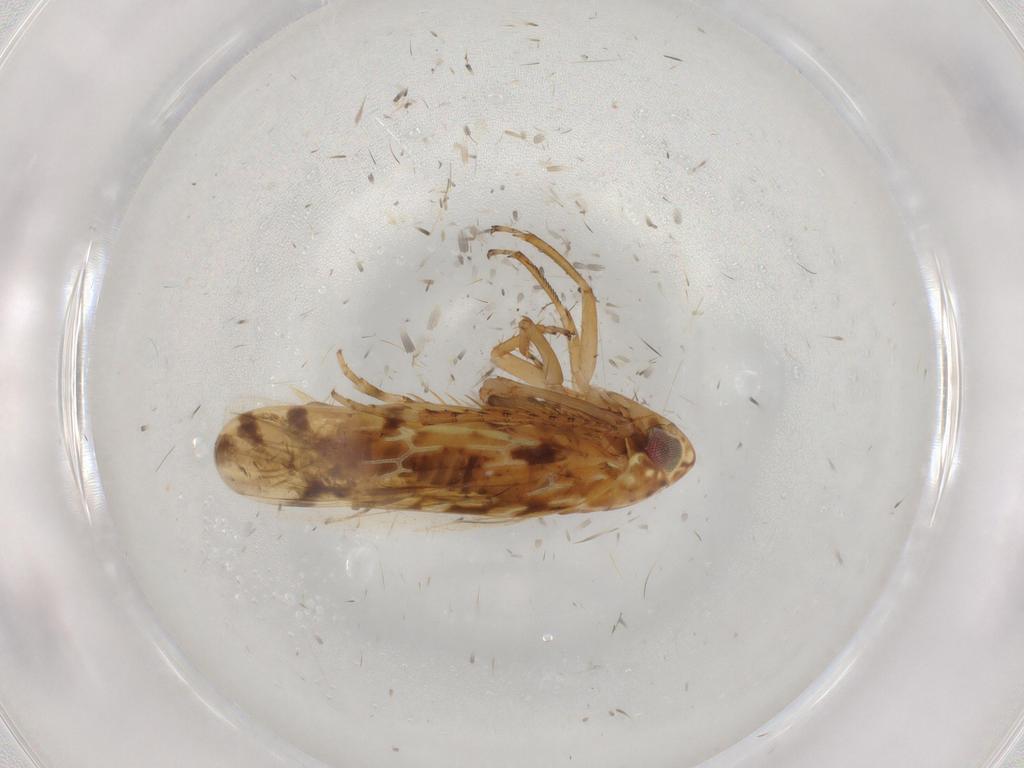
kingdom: Animalia
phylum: Arthropoda
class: Insecta
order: Hemiptera
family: Cicadellidae
